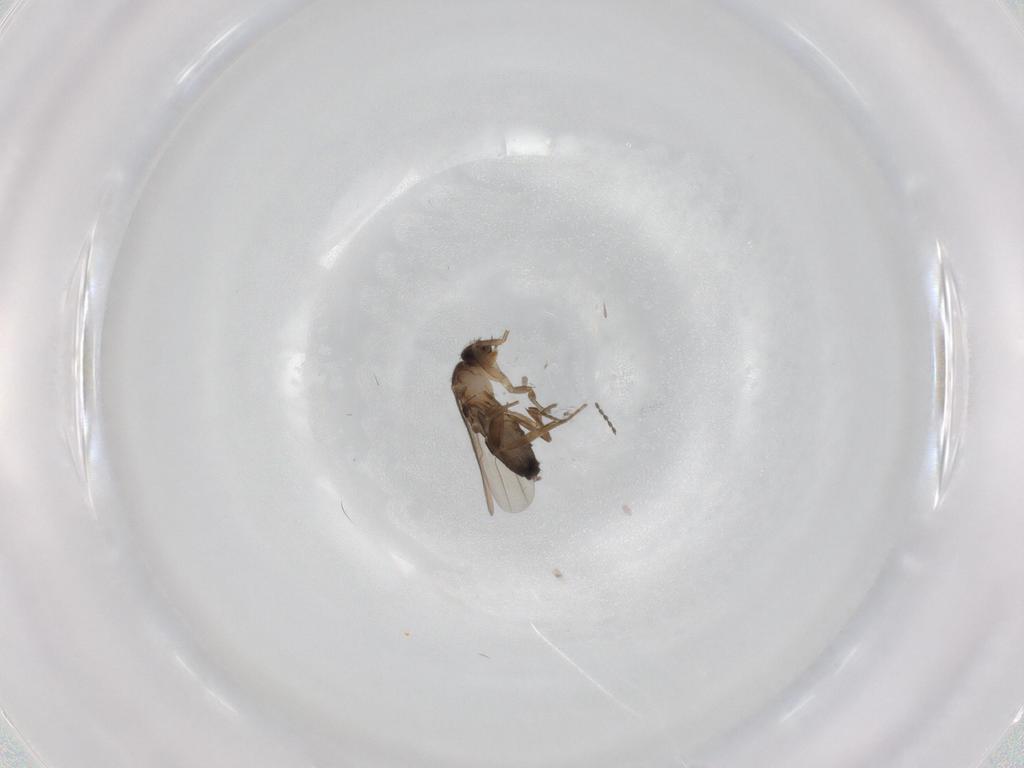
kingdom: Animalia
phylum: Arthropoda
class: Insecta
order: Diptera
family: Phoridae
